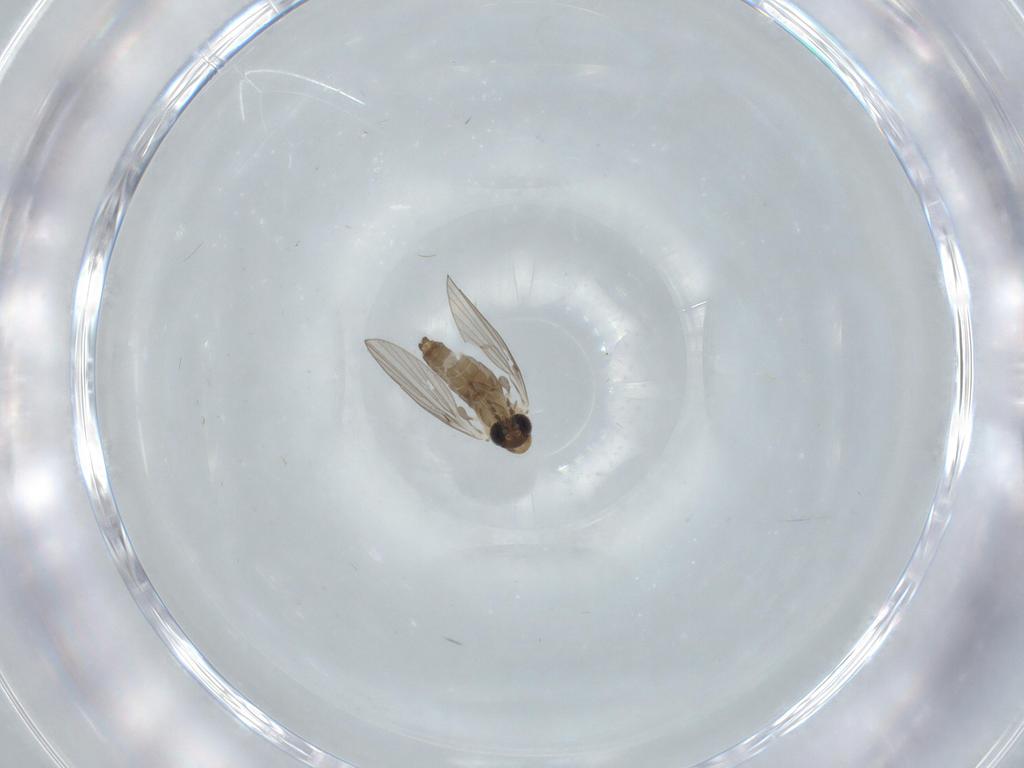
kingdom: Animalia
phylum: Arthropoda
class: Insecta
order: Diptera
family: Psychodidae
